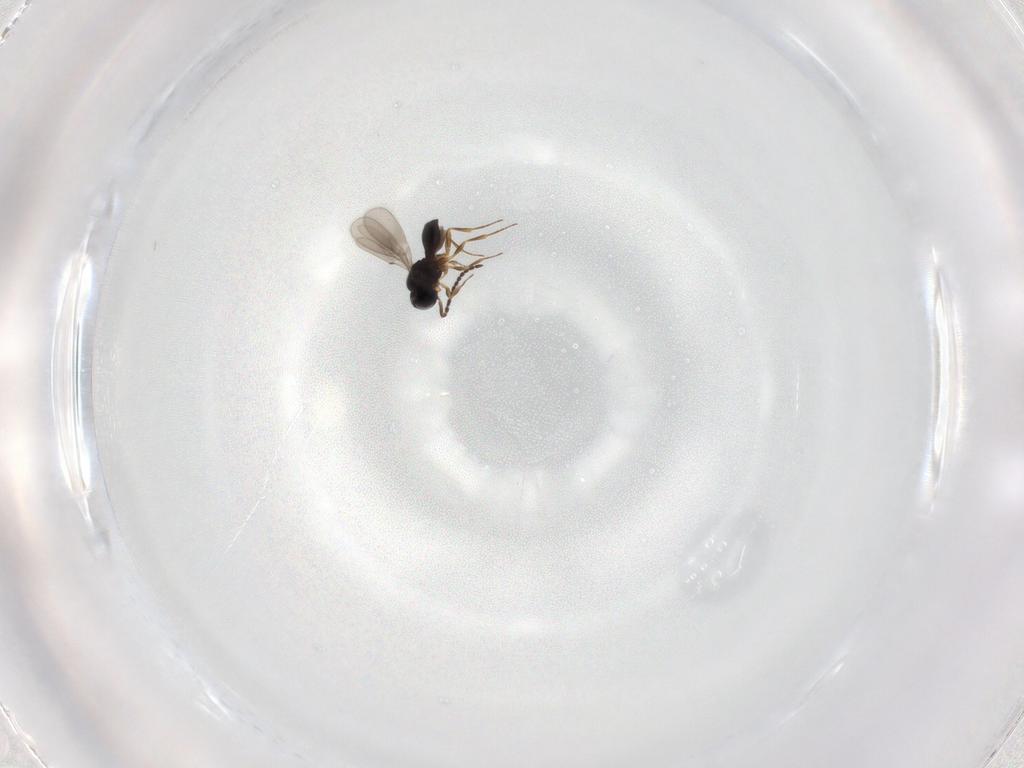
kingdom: Animalia
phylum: Arthropoda
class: Insecta
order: Hymenoptera
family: Scelionidae
